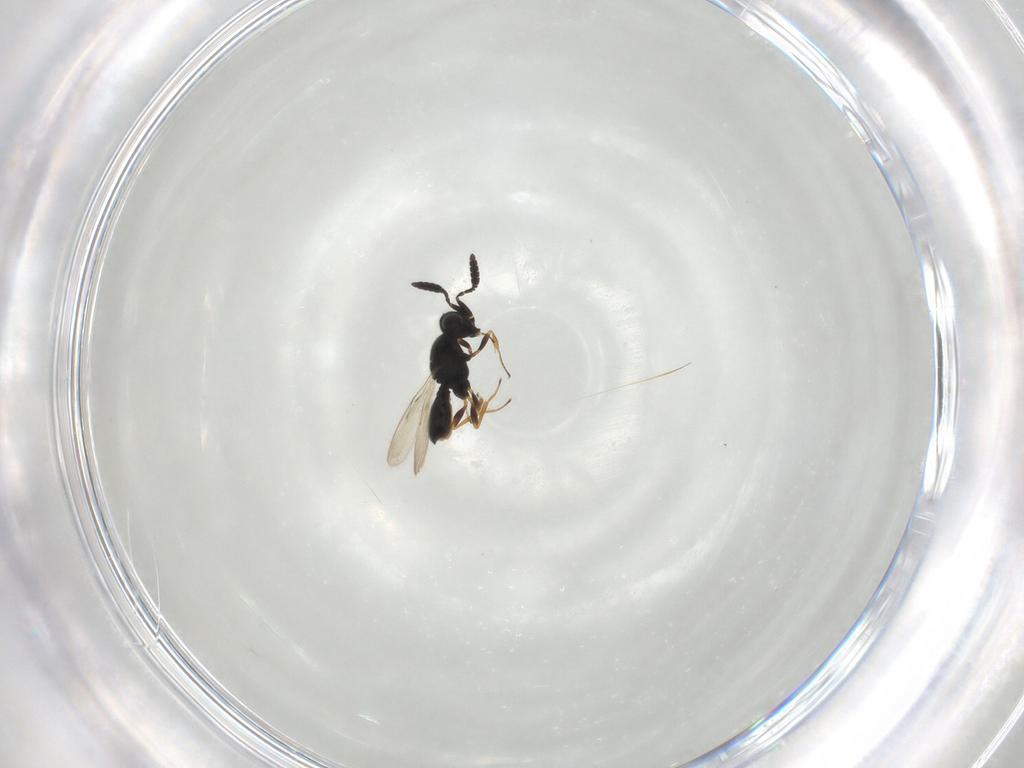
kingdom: Animalia
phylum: Arthropoda
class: Insecta
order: Hymenoptera
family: Scelionidae
